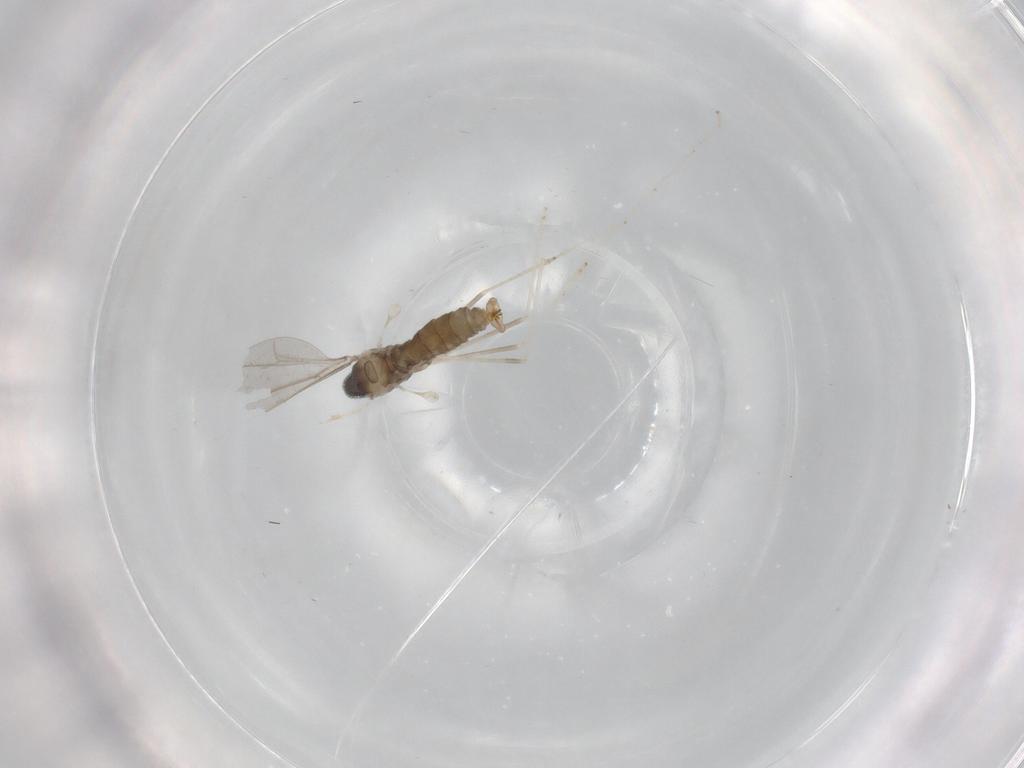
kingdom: Animalia
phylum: Arthropoda
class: Insecta
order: Diptera
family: Cecidomyiidae
